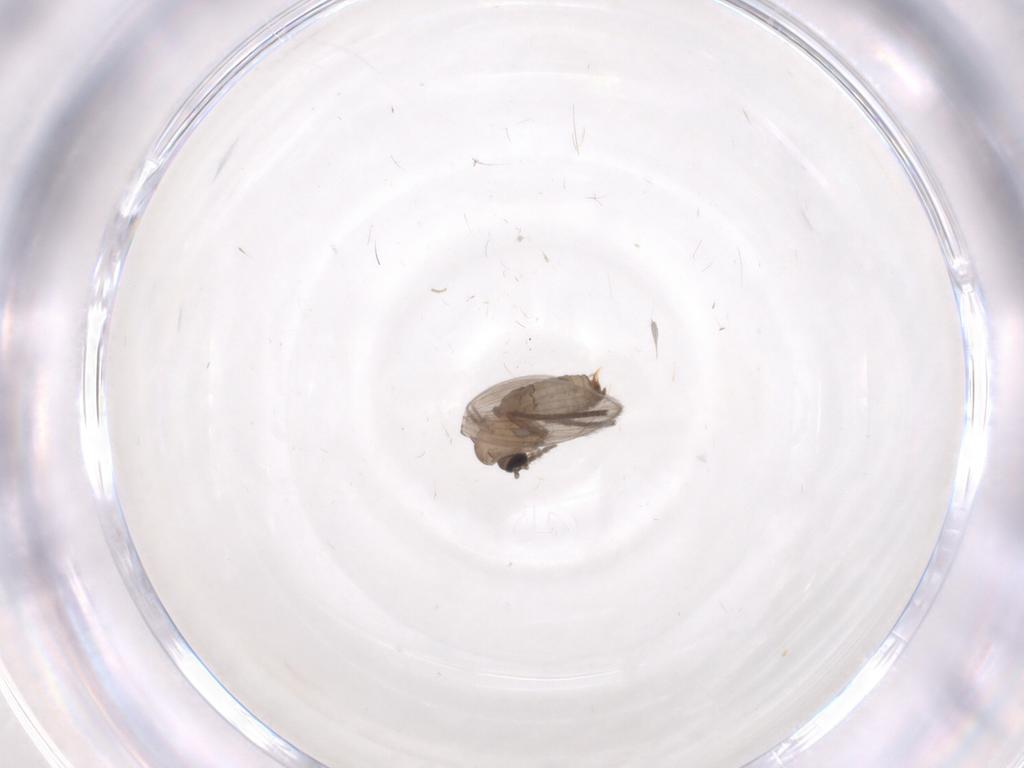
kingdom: Animalia
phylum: Arthropoda
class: Insecta
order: Diptera
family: Phoridae
